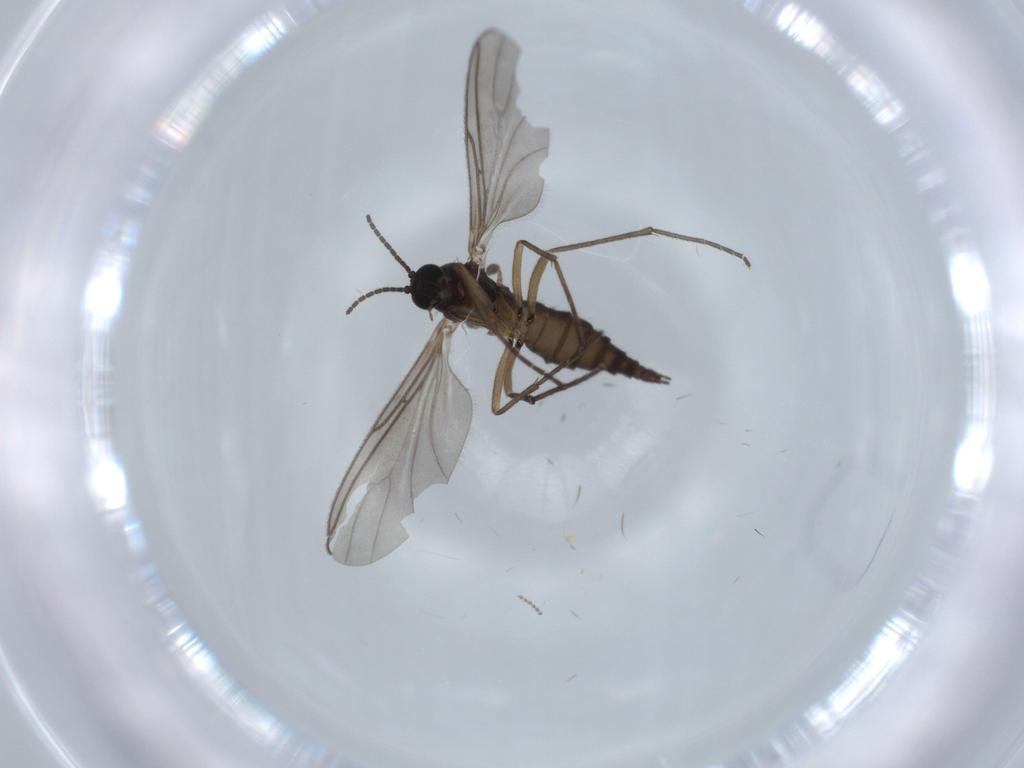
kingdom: Animalia
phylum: Arthropoda
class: Insecta
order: Diptera
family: Sciaridae
